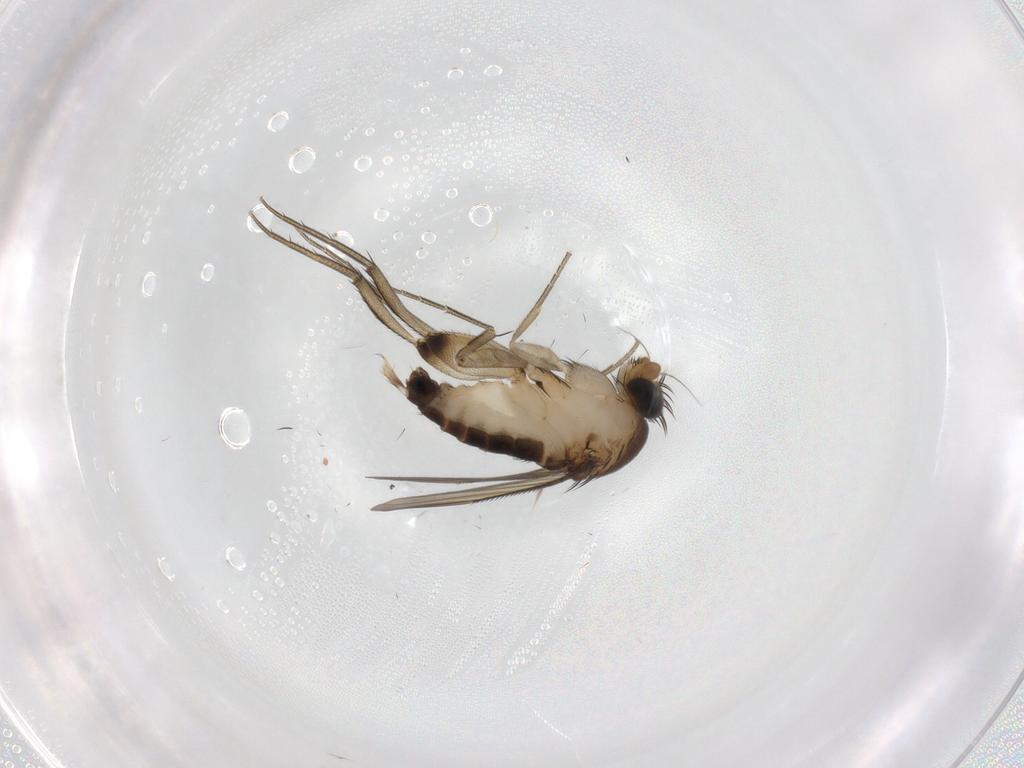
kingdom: Animalia
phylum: Arthropoda
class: Insecta
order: Diptera
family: Phoridae
